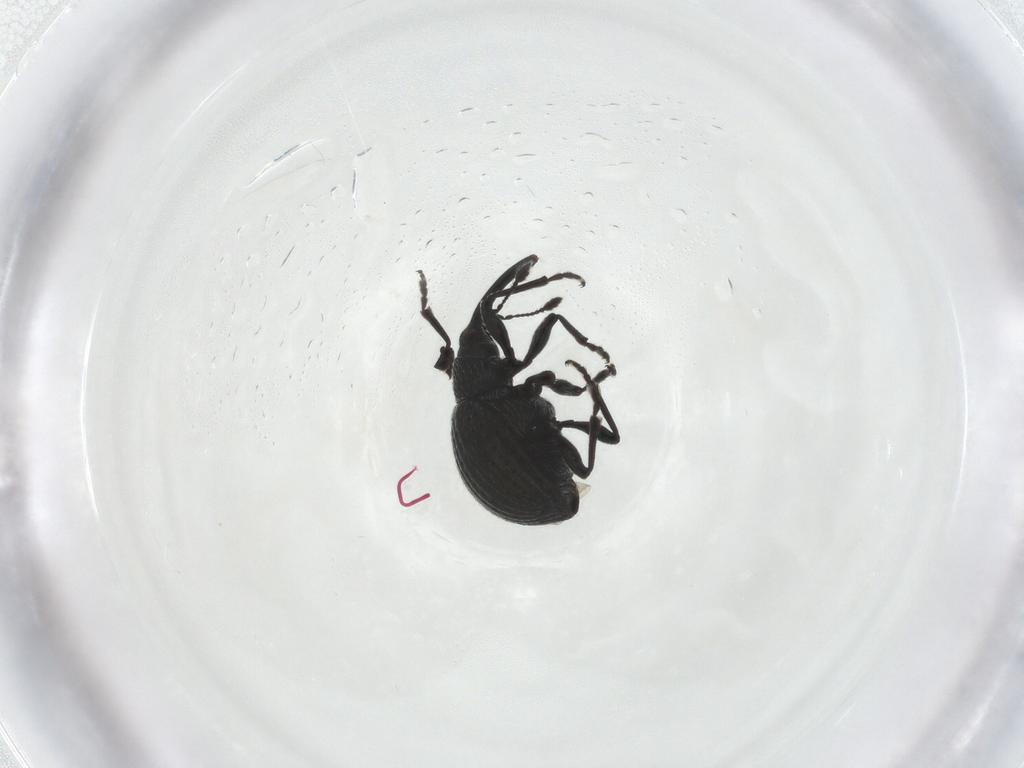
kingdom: Animalia
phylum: Arthropoda
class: Insecta
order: Coleoptera
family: Brentidae
